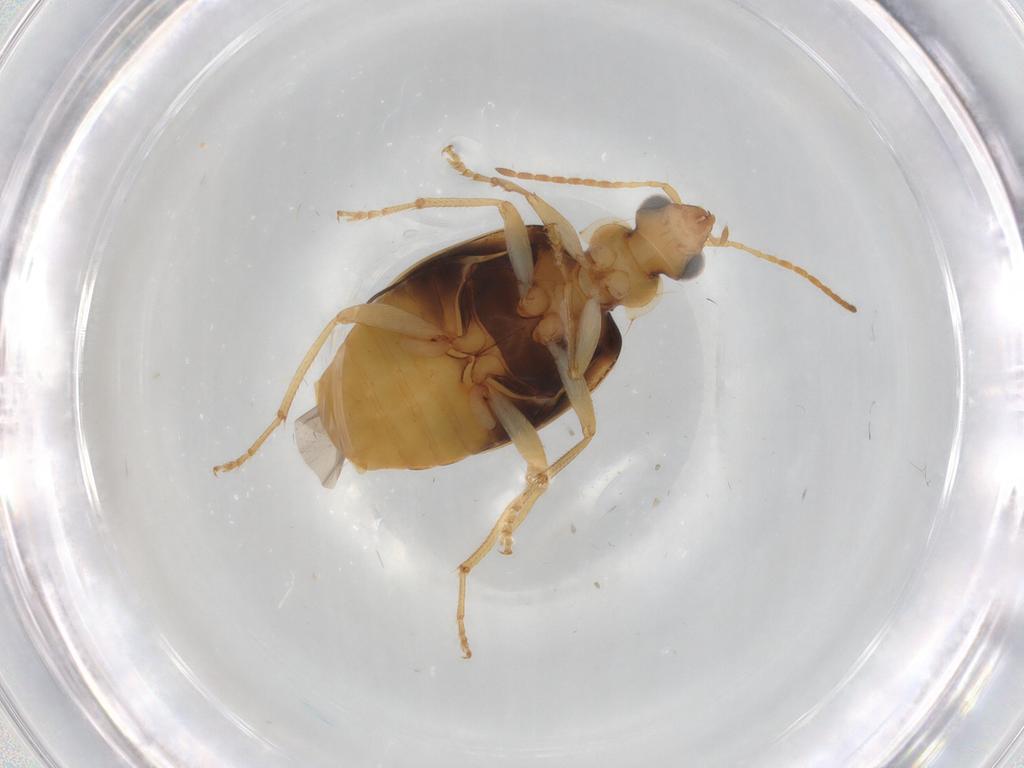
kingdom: Animalia
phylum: Arthropoda
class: Insecta
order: Coleoptera
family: Carabidae
